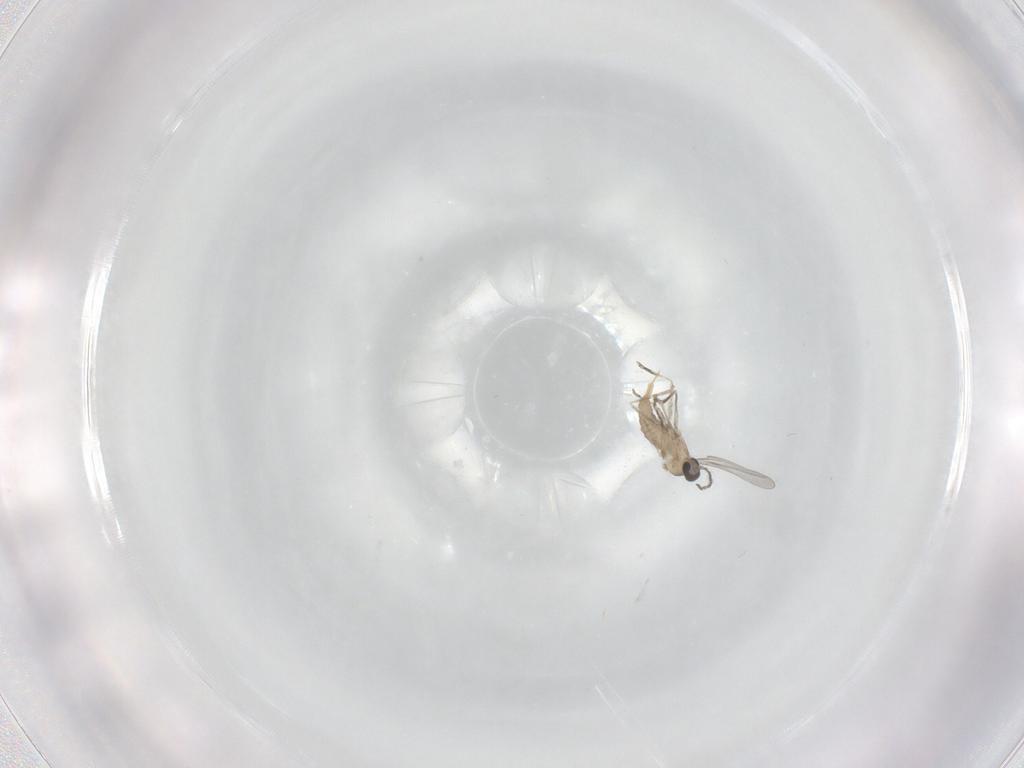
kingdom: Animalia
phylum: Arthropoda
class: Insecta
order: Diptera
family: Cecidomyiidae
